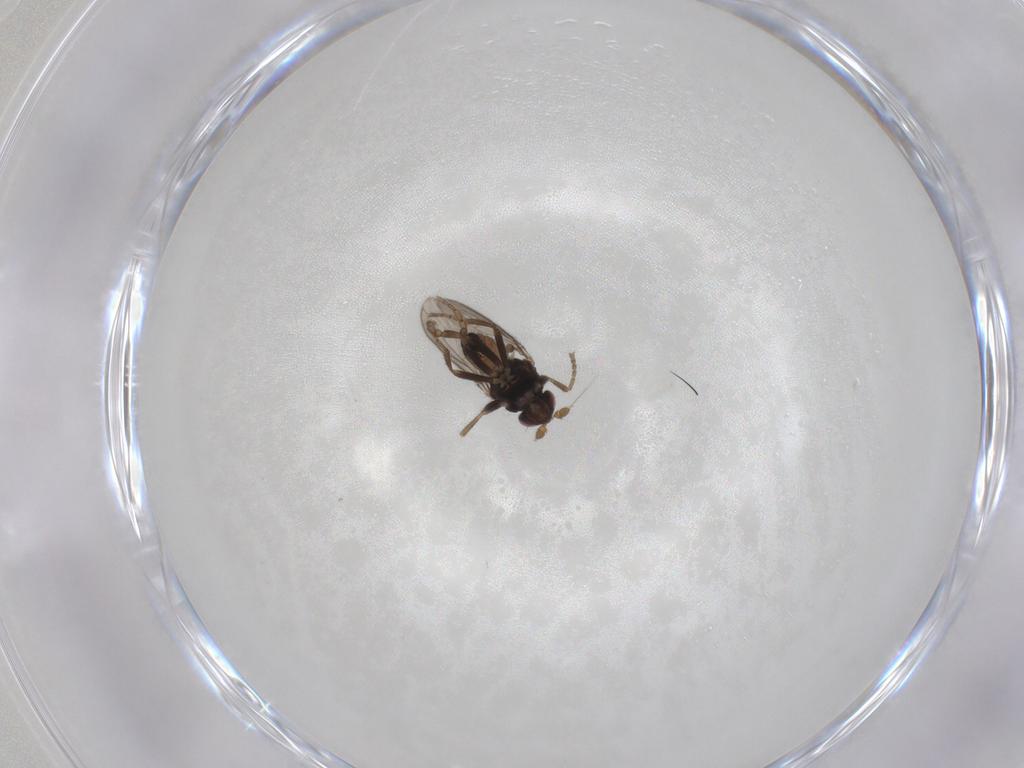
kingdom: Animalia
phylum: Arthropoda
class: Insecta
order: Diptera
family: Sphaeroceridae
